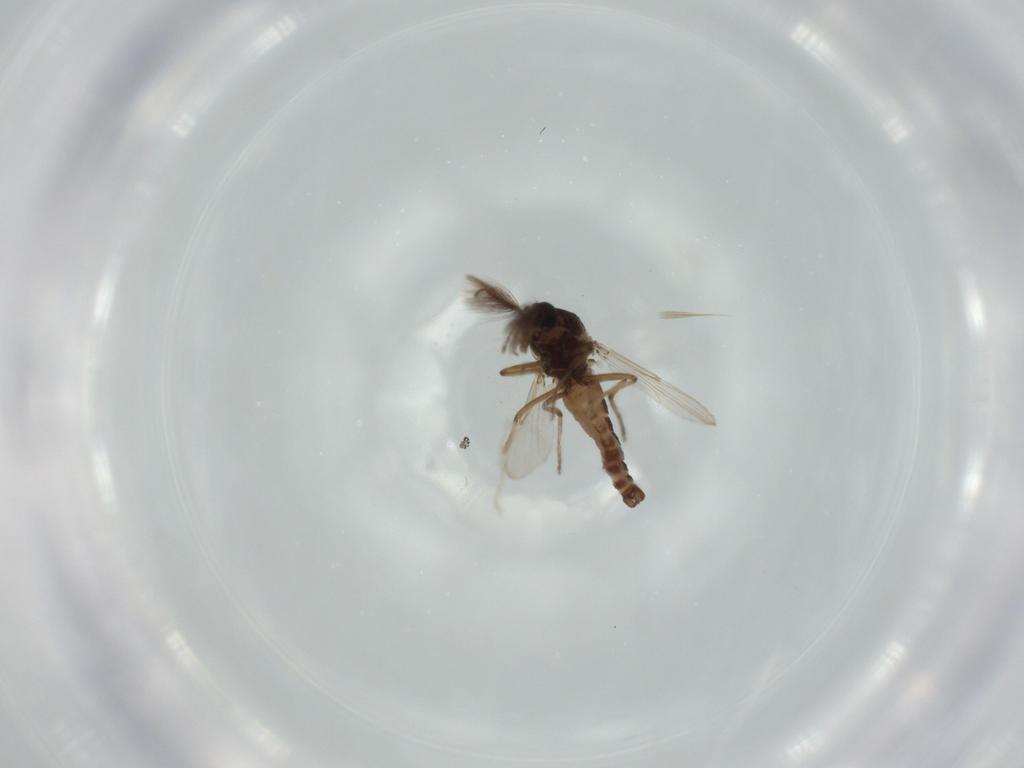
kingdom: Animalia
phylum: Arthropoda
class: Insecta
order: Diptera
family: Ceratopogonidae
